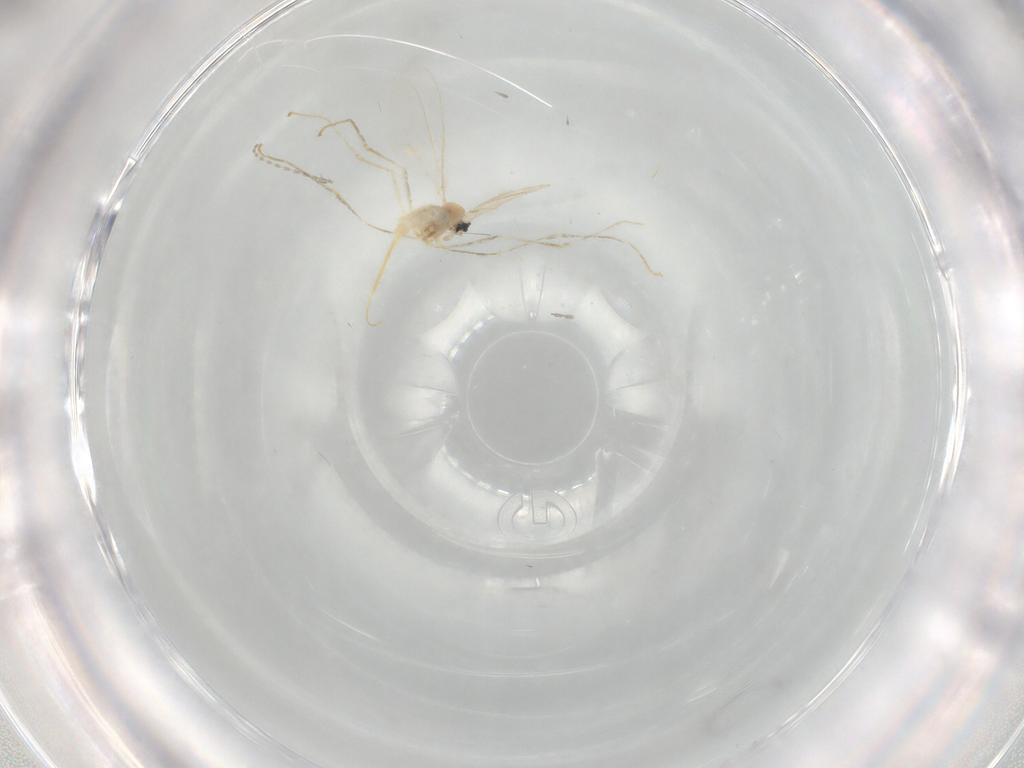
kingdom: Animalia
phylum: Arthropoda
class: Insecta
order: Diptera
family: Cecidomyiidae
